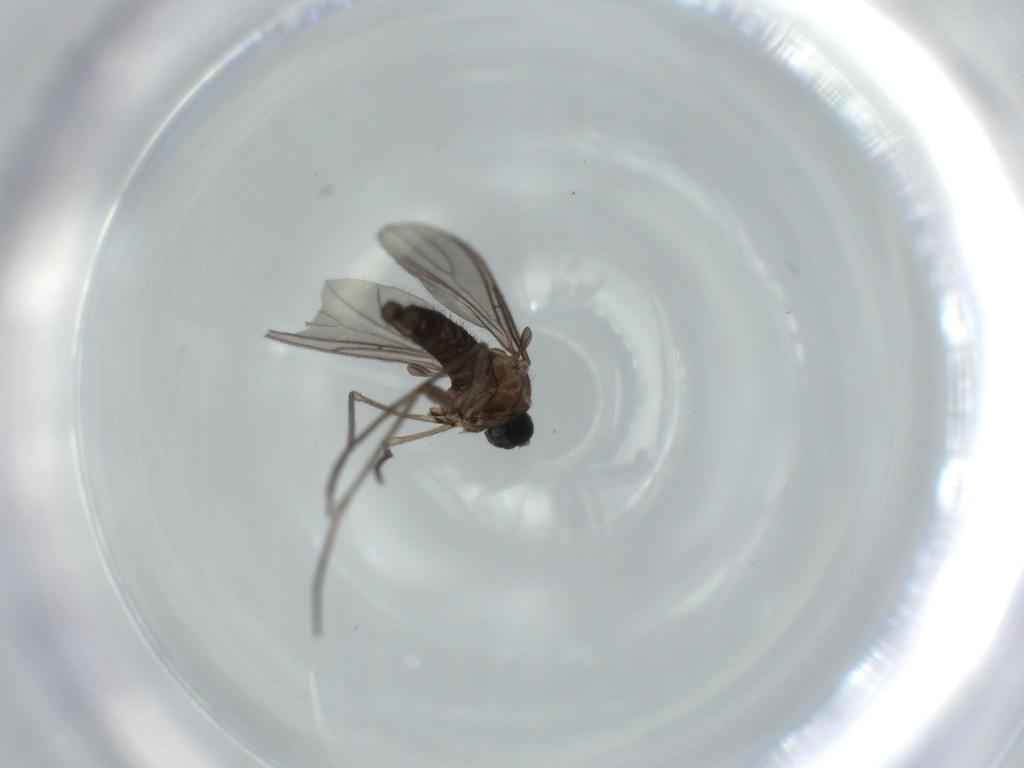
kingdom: Animalia
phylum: Arthropoda
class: Insecta
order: Diptera
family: Sciaridae
